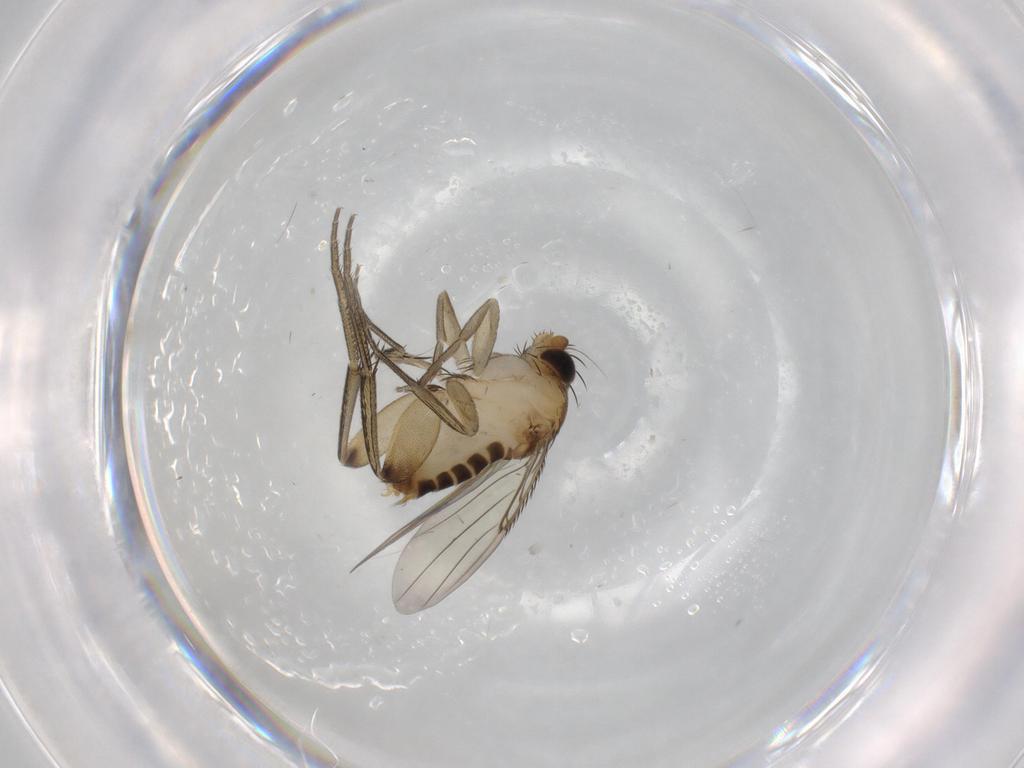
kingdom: Animalia
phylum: Arthropoda
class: Insecta
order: Diptera
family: Phoridae
